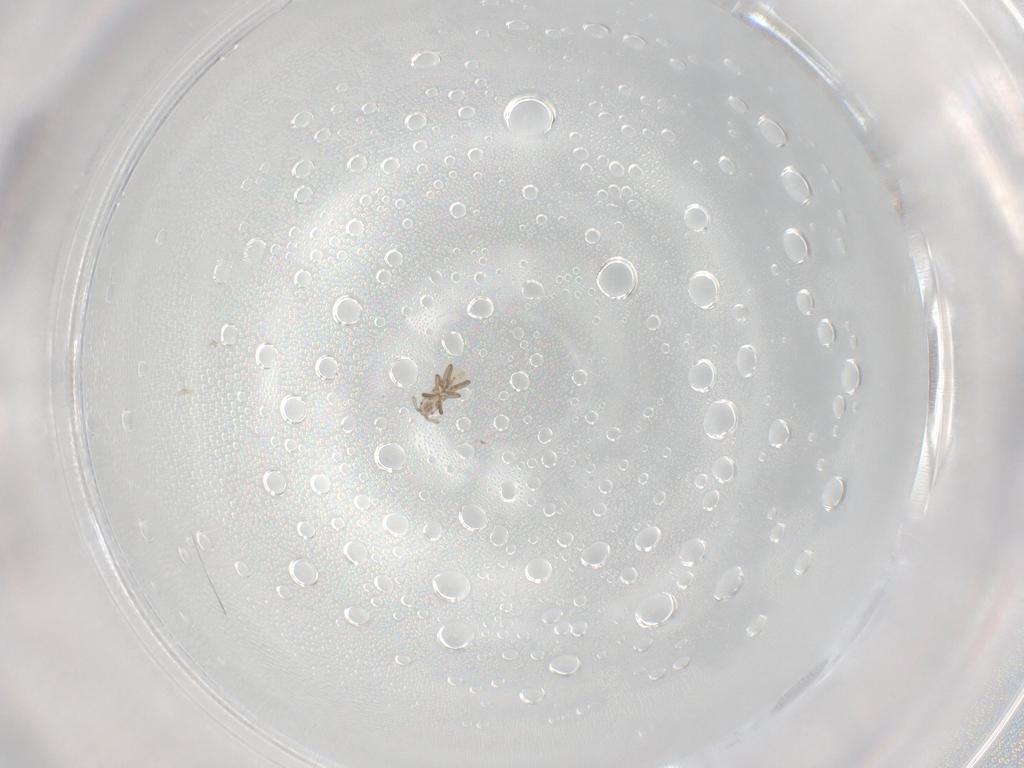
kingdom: Animalia
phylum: Arthropoda
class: Insecta
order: Hemiptera
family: Aphididae
